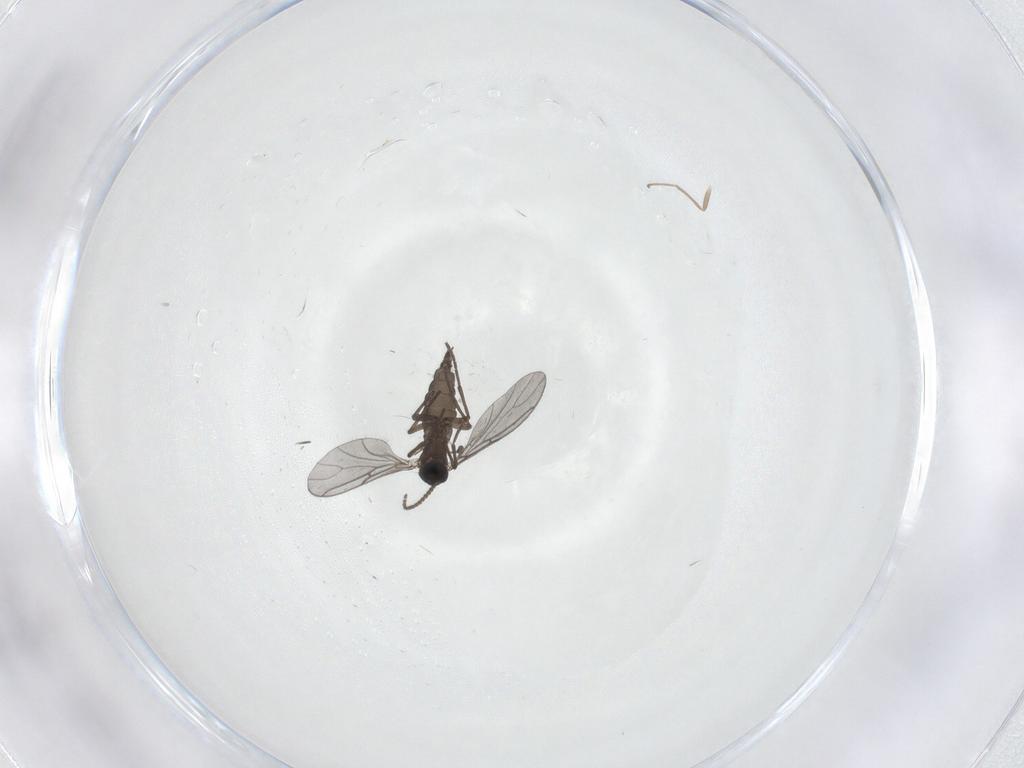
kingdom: Animalia
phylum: Arthropoda
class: Insecta
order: Diptera
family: Sciaridae
